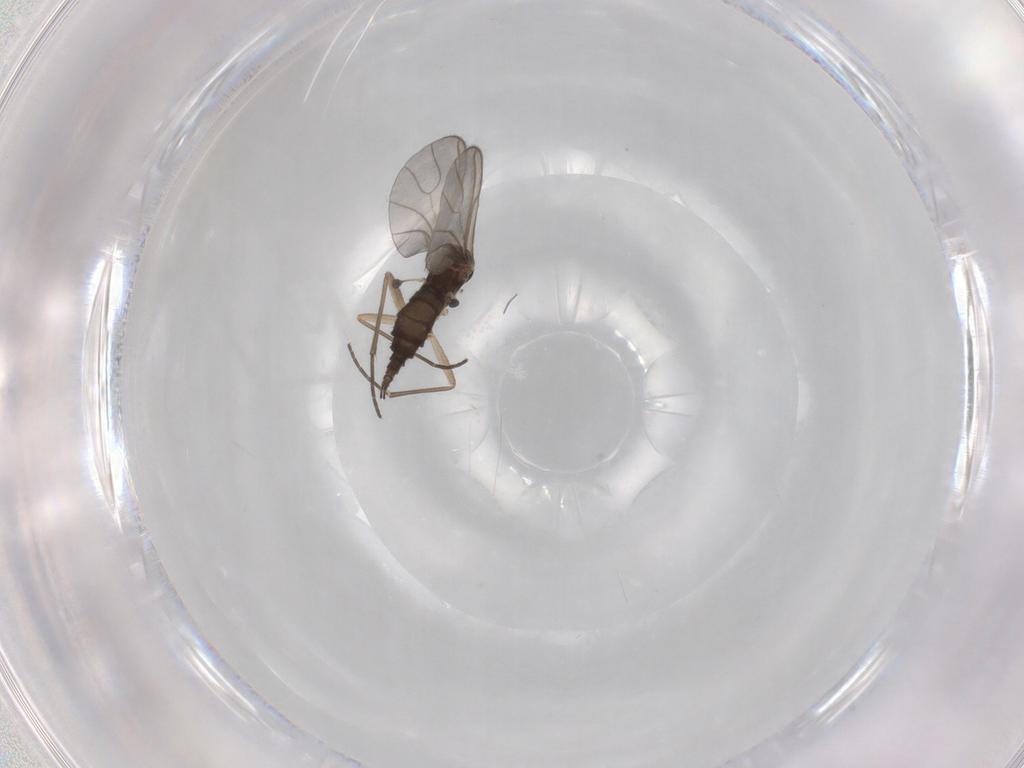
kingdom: Animalia
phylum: Arthropoda
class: Insecta
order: Diptera
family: Sciaridae
